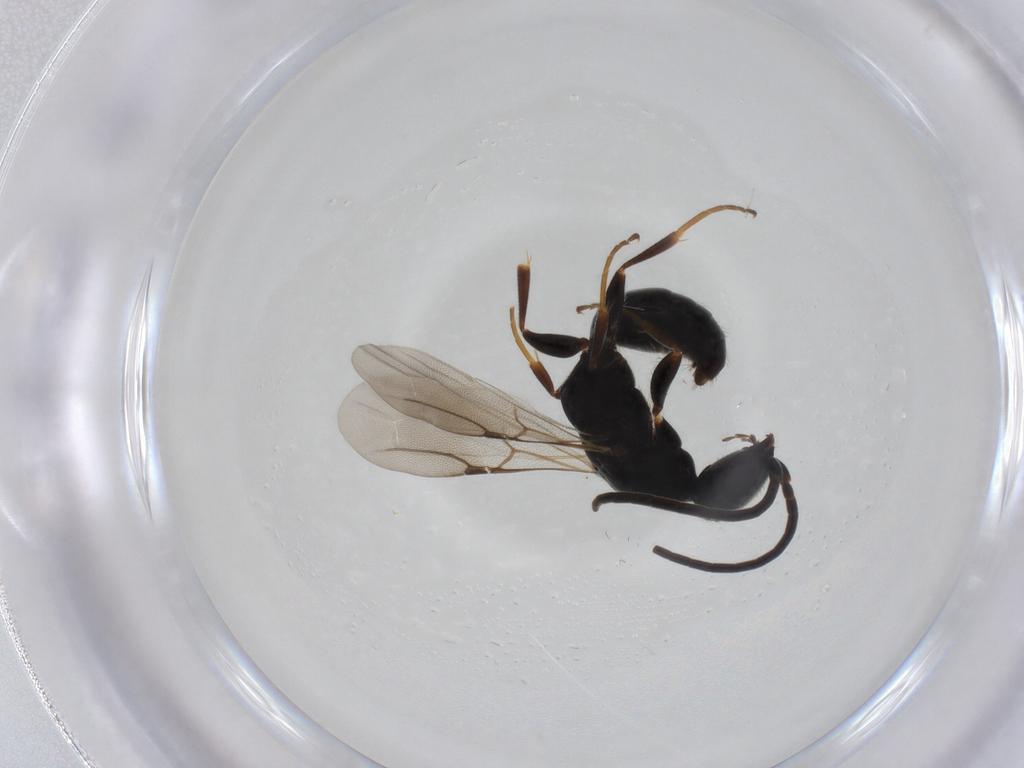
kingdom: Animalia
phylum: Arthropoda
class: Insecta
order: Hymenoptera
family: Bethylidae
